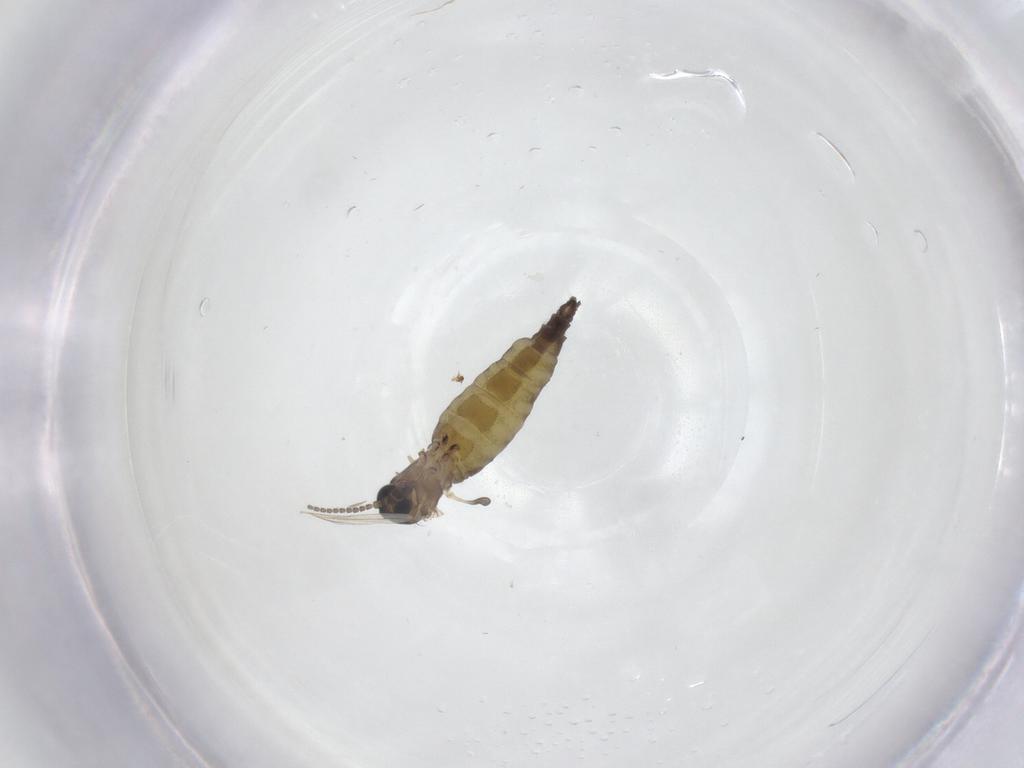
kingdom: Animalia
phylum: Arthropoda
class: Insecta
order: Diptera
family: Sciaridae
